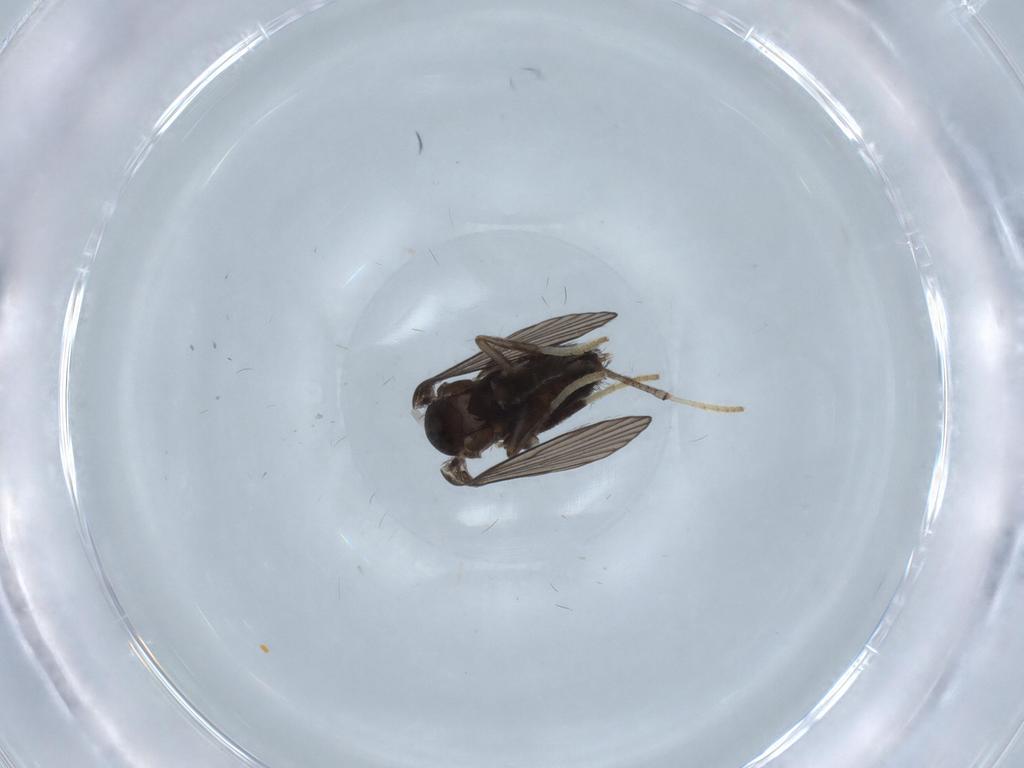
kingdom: Animalia
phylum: Arthropoda
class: Insecta
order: Diptera
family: Psychodidae
